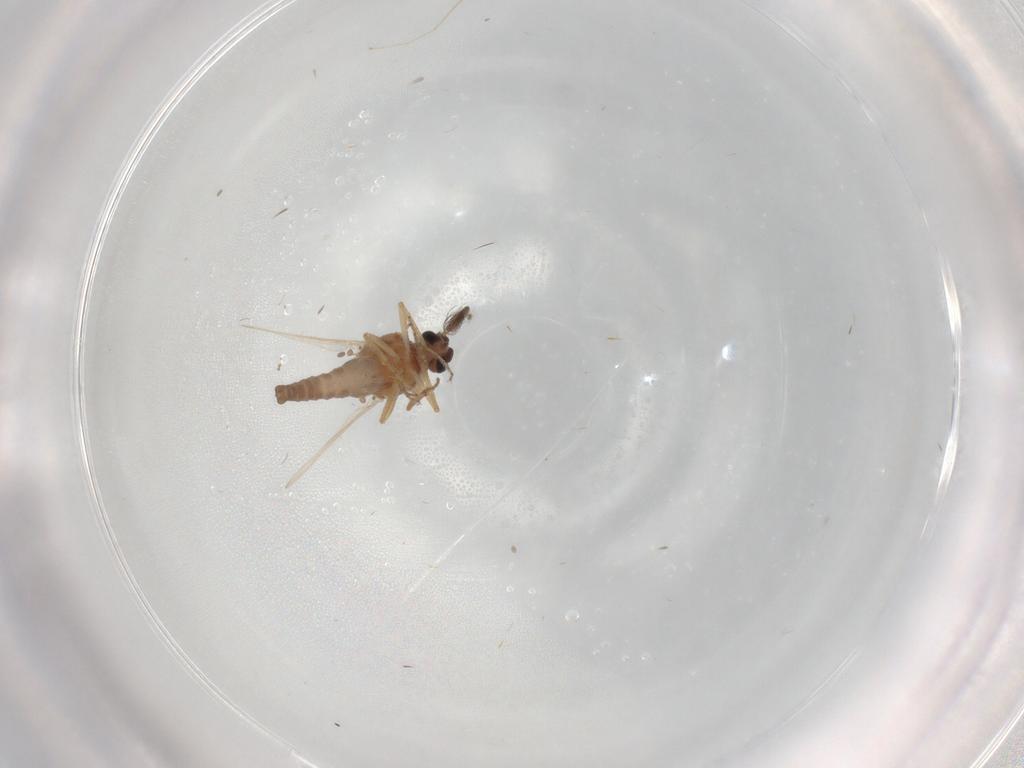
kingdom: Animalia
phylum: Arthropoda
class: Insecta
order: Diptera
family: Ceratopogonidae
